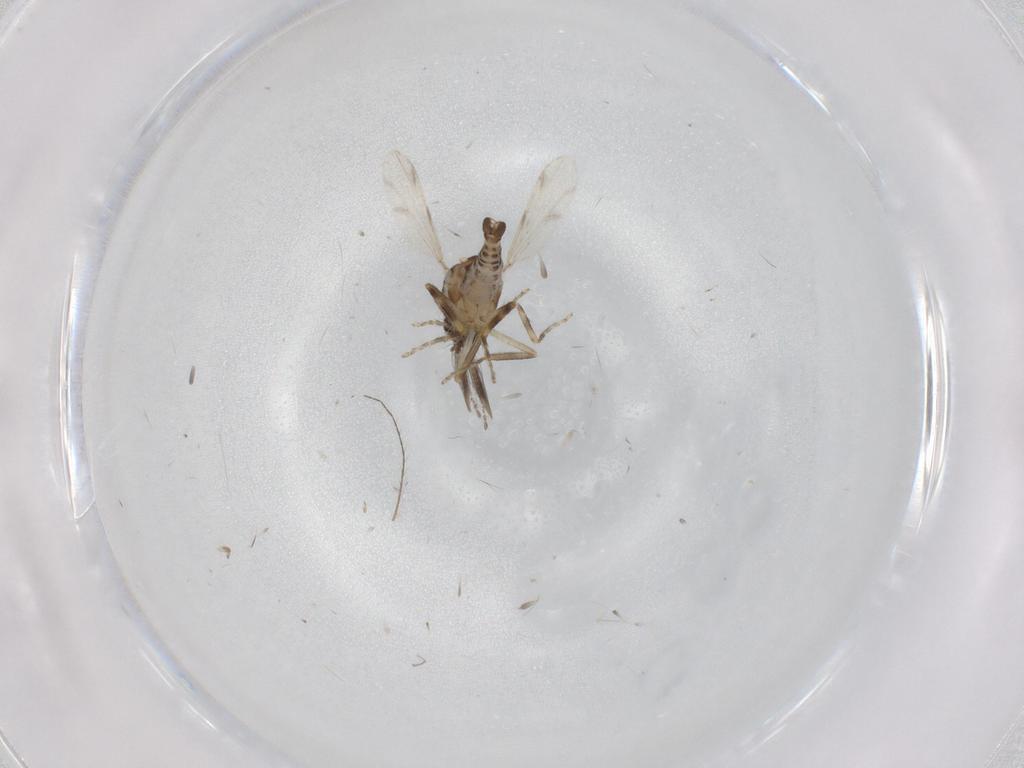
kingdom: Animalia
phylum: Arthropoda
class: Insecta
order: Diptera
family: Ceratopogonidae
